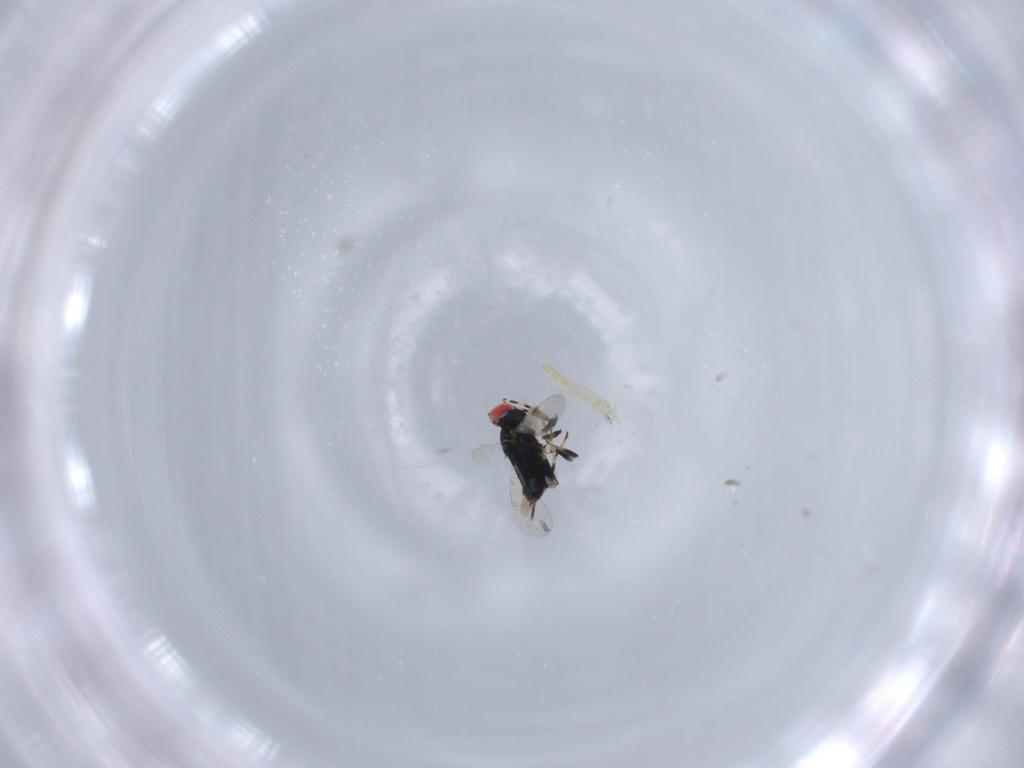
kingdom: Animalia
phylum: Arthropoda
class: Insecta
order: Hymenoptera
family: Azotidae
